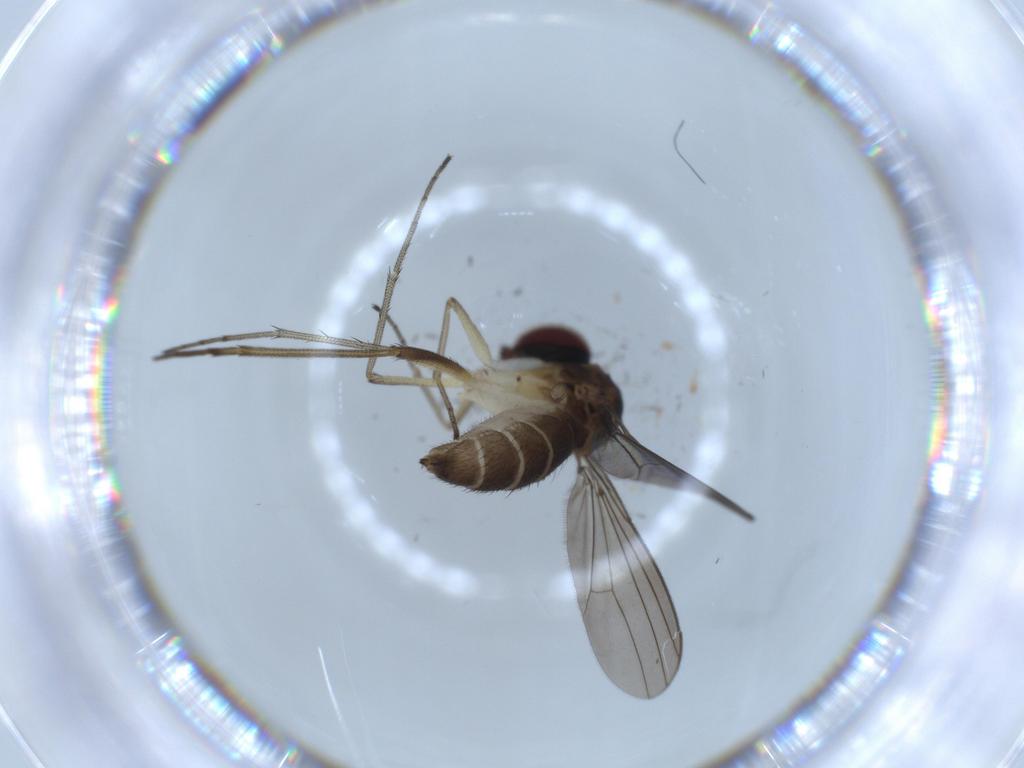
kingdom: Animalia
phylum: Arthropoda
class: Insecta
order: Diptera
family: Dolichopodidae
